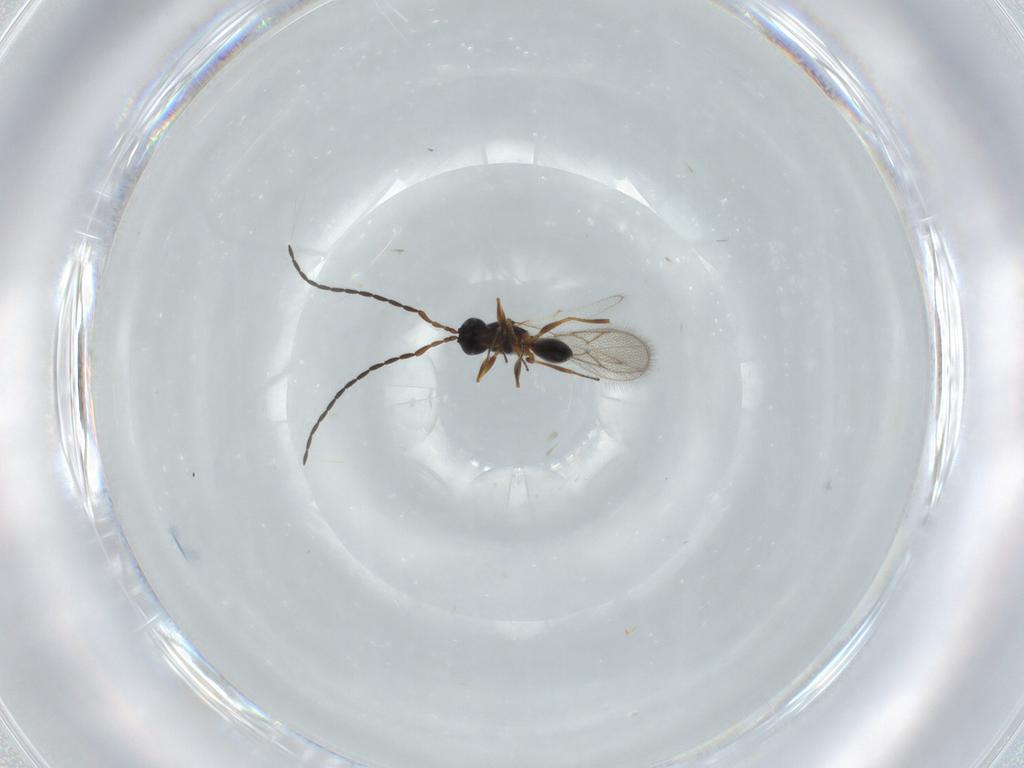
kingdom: Animalia
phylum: Arthropoda
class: Insecta
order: Hymenoptera
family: Figitidae
